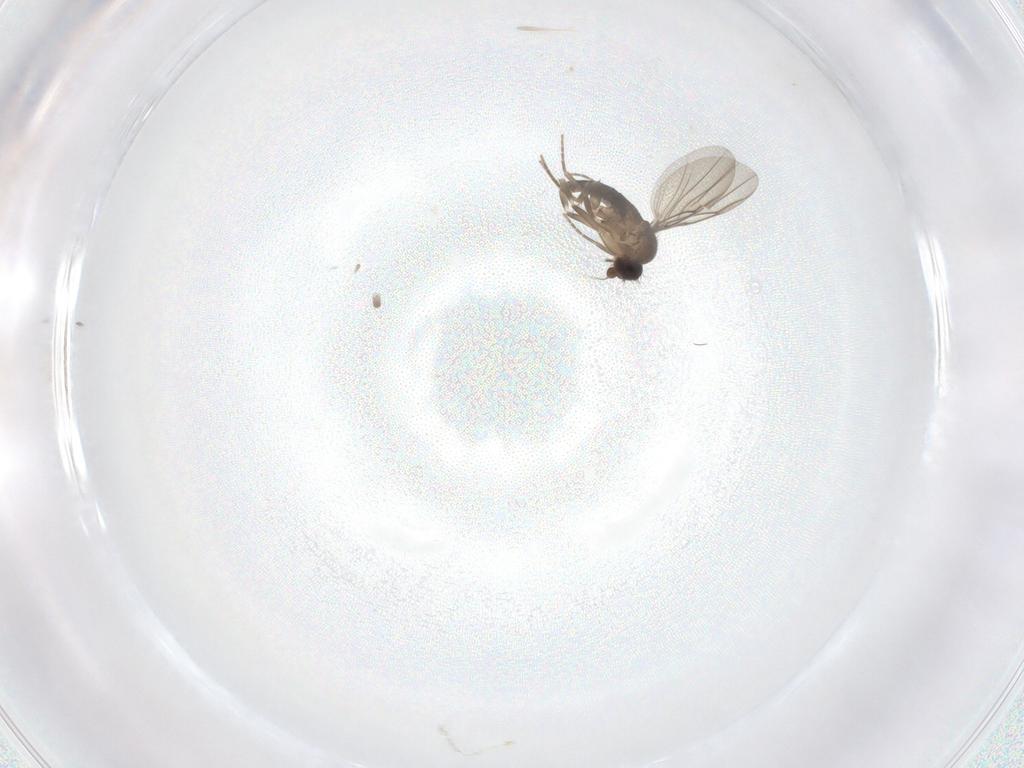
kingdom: Animalia
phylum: Arthropoda
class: Insecta
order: Diptera
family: Cecidomyiidae
